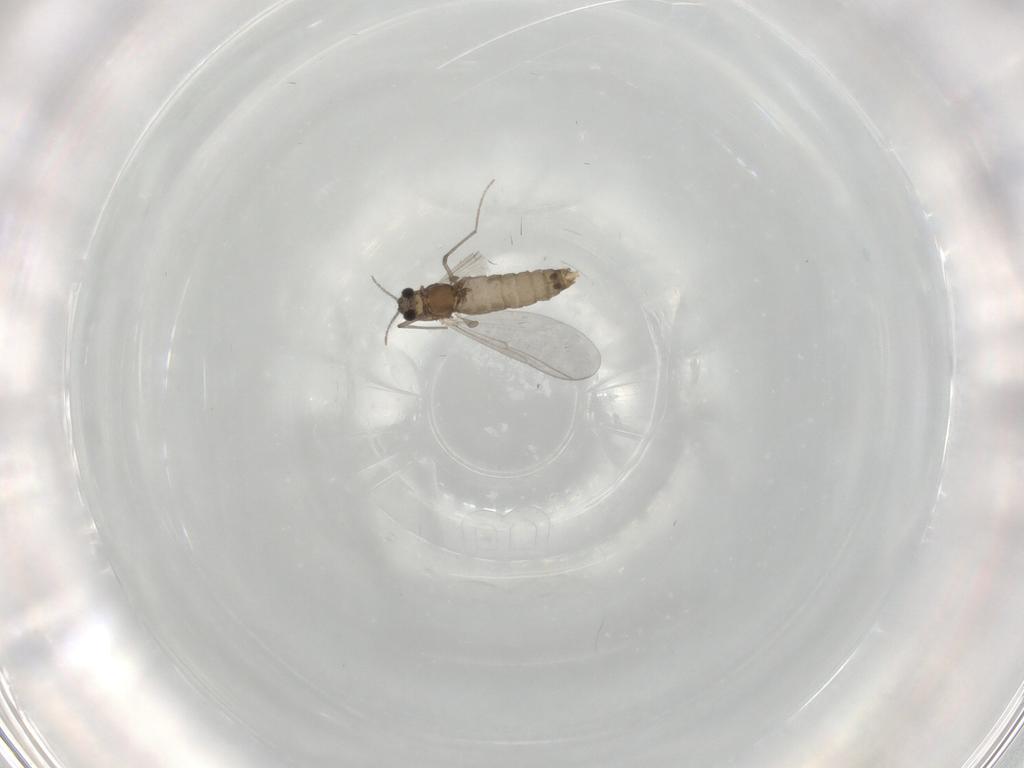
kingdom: Animalia
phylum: Arthropoda
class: Insecta
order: Diptera
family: Chironomidae
